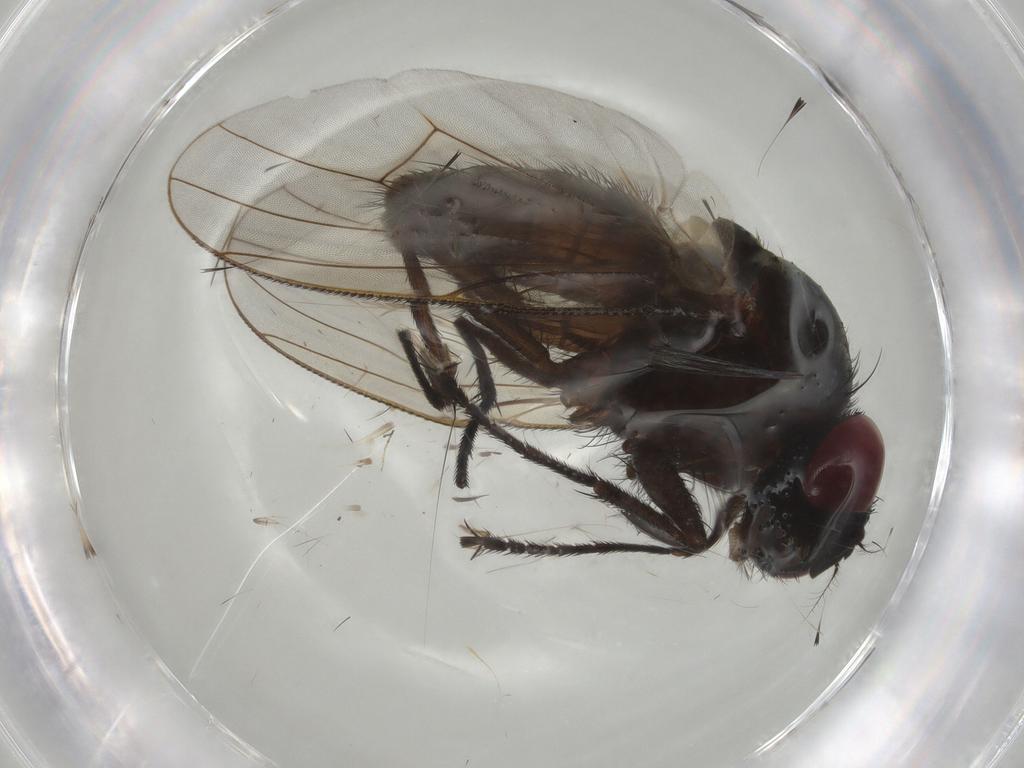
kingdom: Animalia
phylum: Arthropoda
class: Insecta
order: Diptera
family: Muscidae
